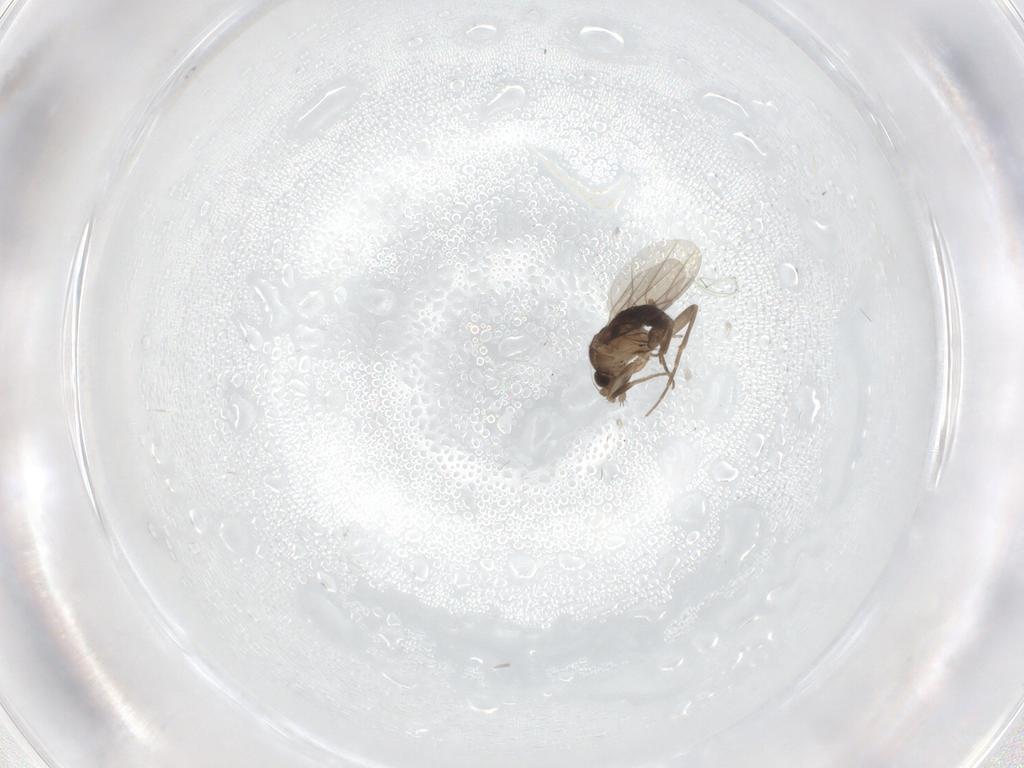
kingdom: Animalia
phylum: Arthropoda
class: Insecta
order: Diptera
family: Phoridae
